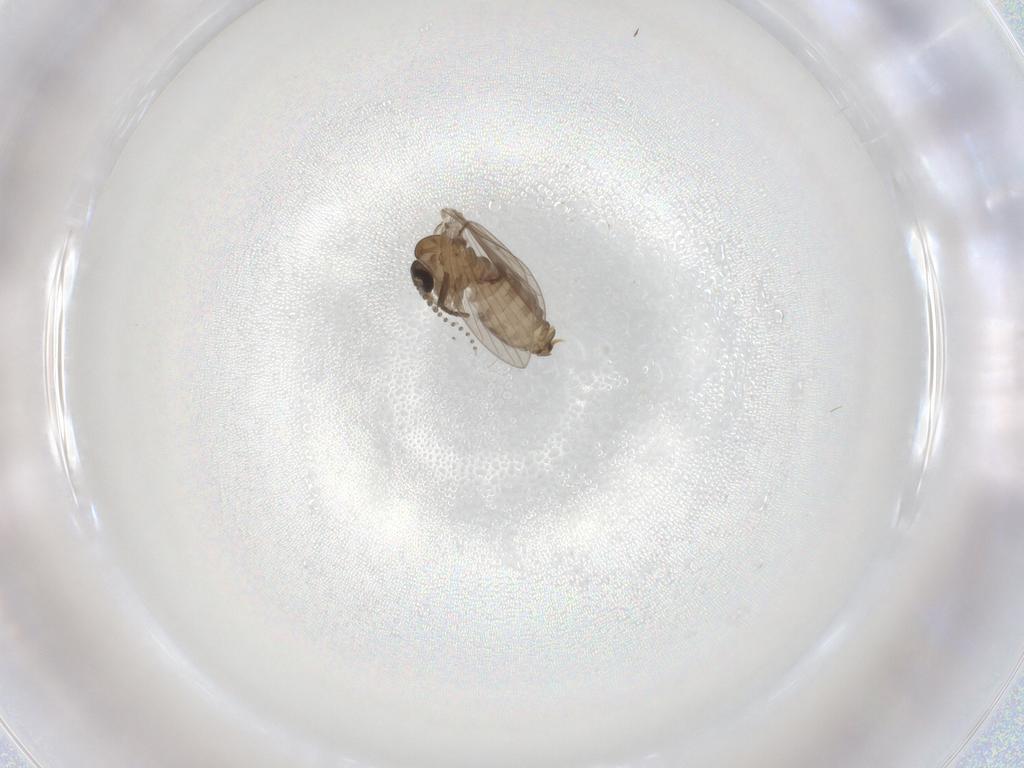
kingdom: Animalia
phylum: Arthropoda
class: Insecta
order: Diptera
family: Psychodidae
